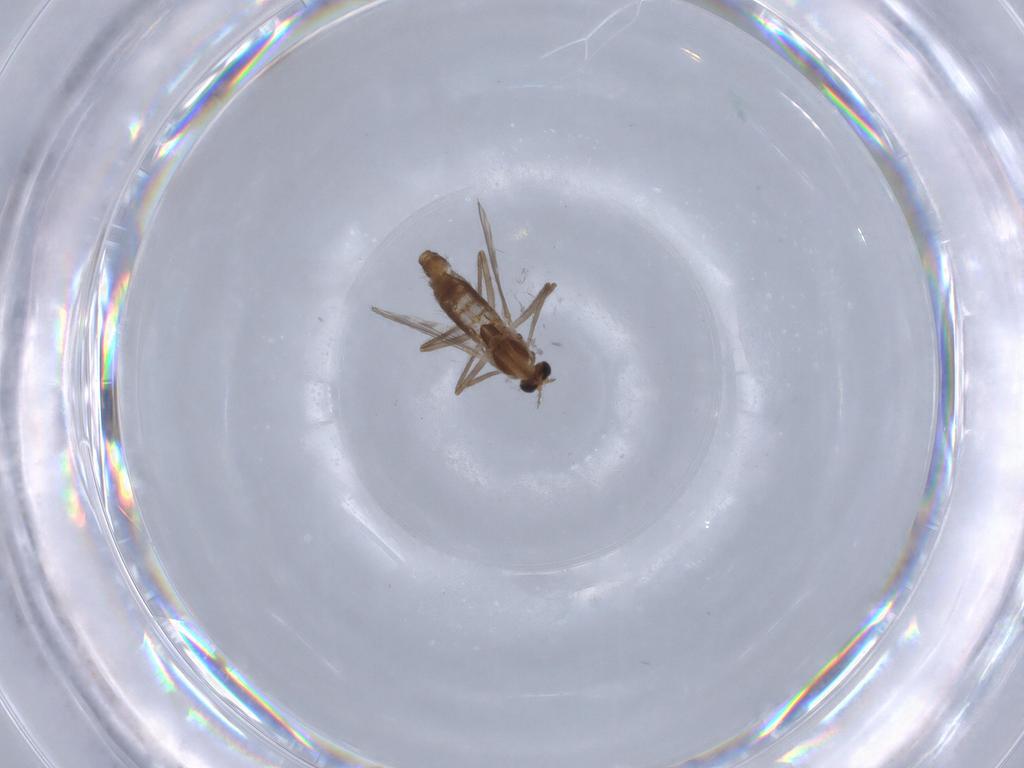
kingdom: Animalia
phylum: Arthropoda
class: Insecta
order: Diptera
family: Chironomidae
